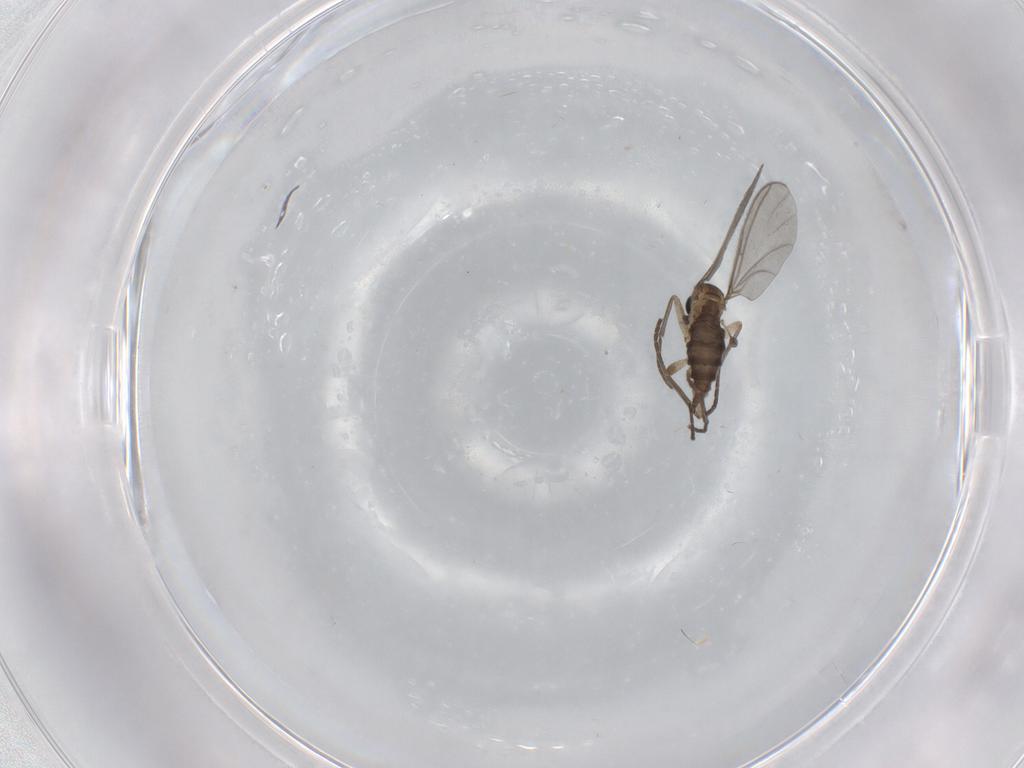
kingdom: Animalia
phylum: Arthropoda
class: Insecta
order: Diptera
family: Sciaridae
